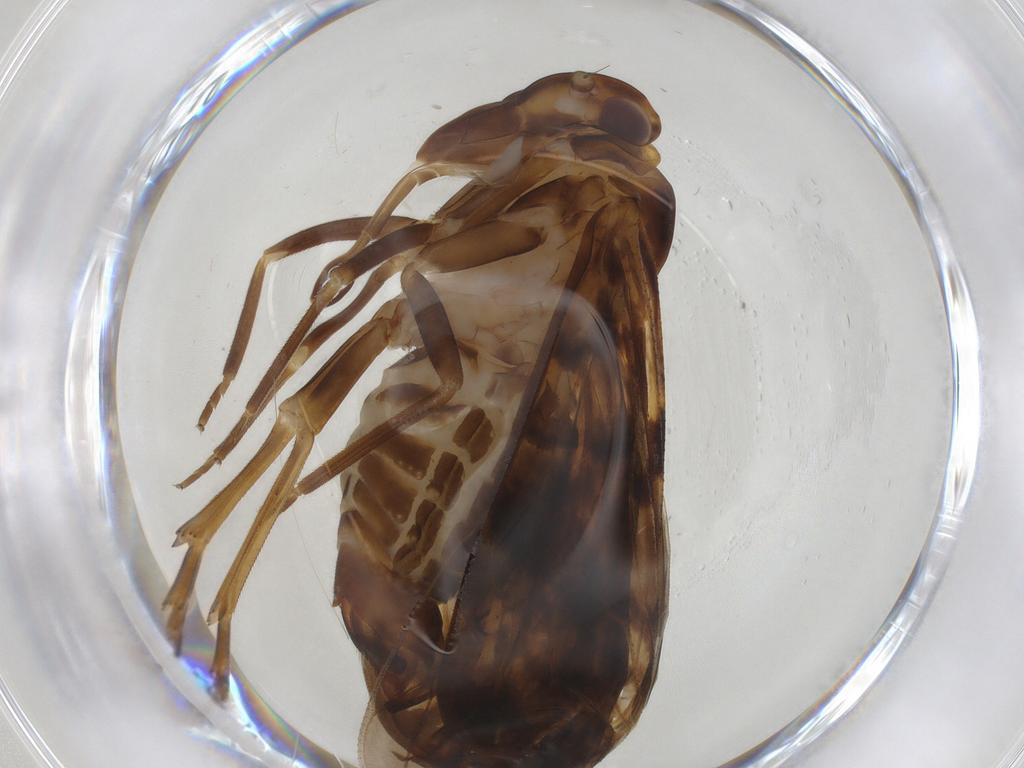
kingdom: Animalia
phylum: Arthropoda
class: Insecta
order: Hemiptera
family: Cixiidae
